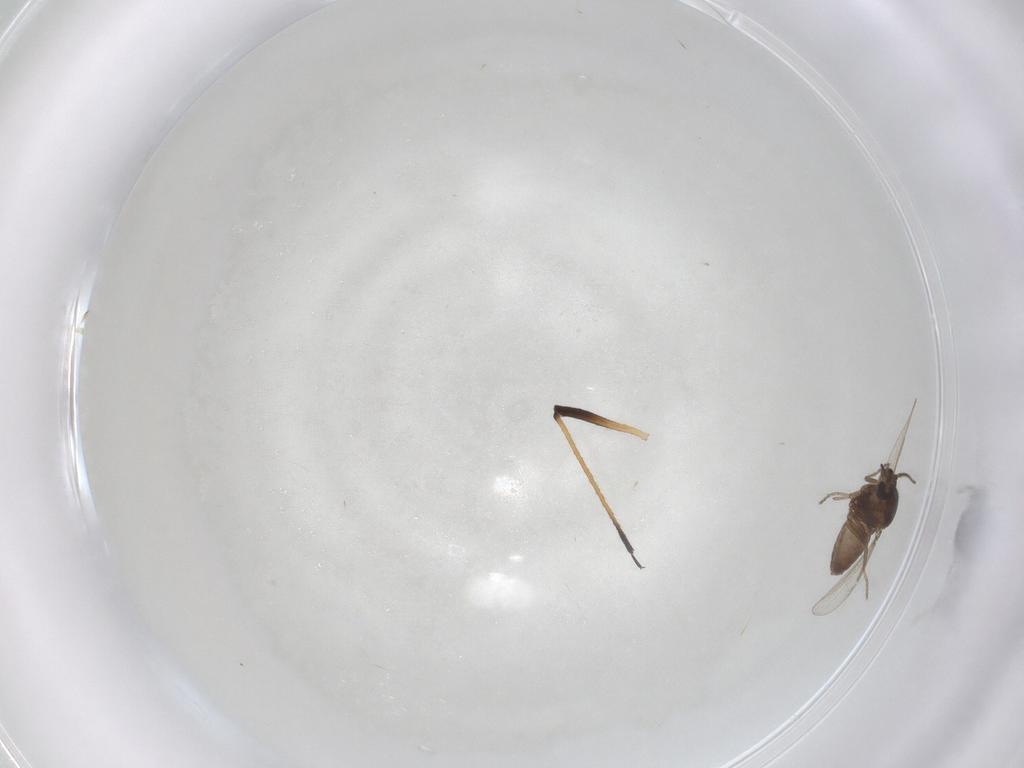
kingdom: Animalia
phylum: Arthropoda
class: Insecta
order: Diptera
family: Ceratopogonidae
